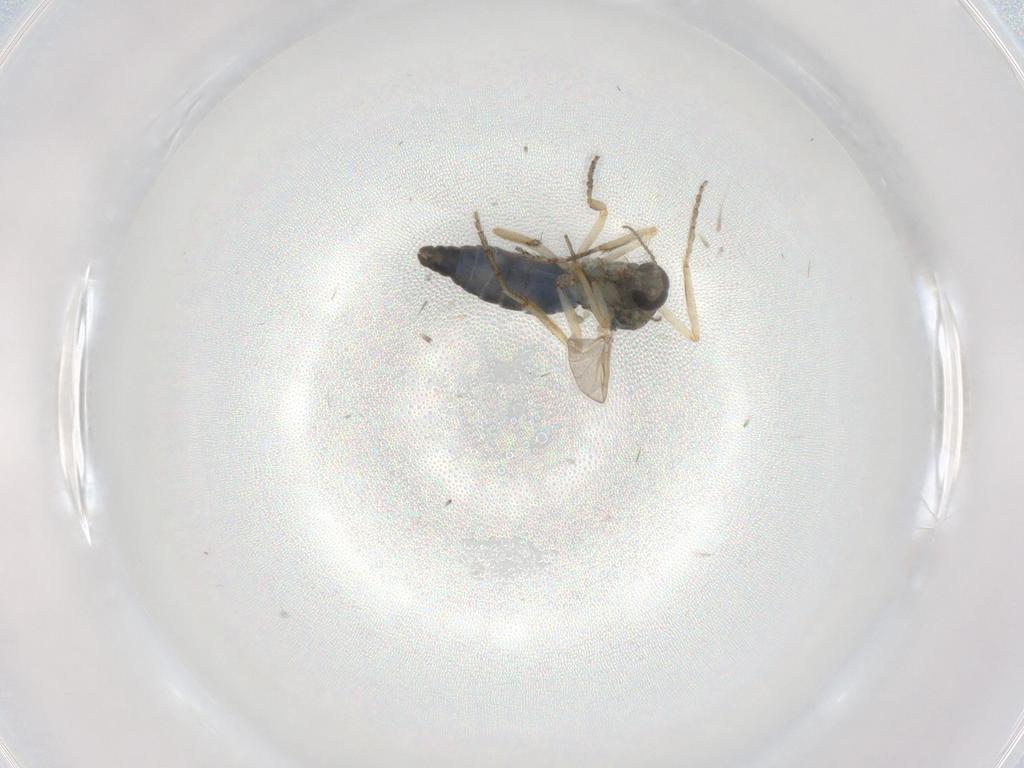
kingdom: Animalia
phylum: Arthropoda
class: Insecta
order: Diptera
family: Ceratopogonidae
